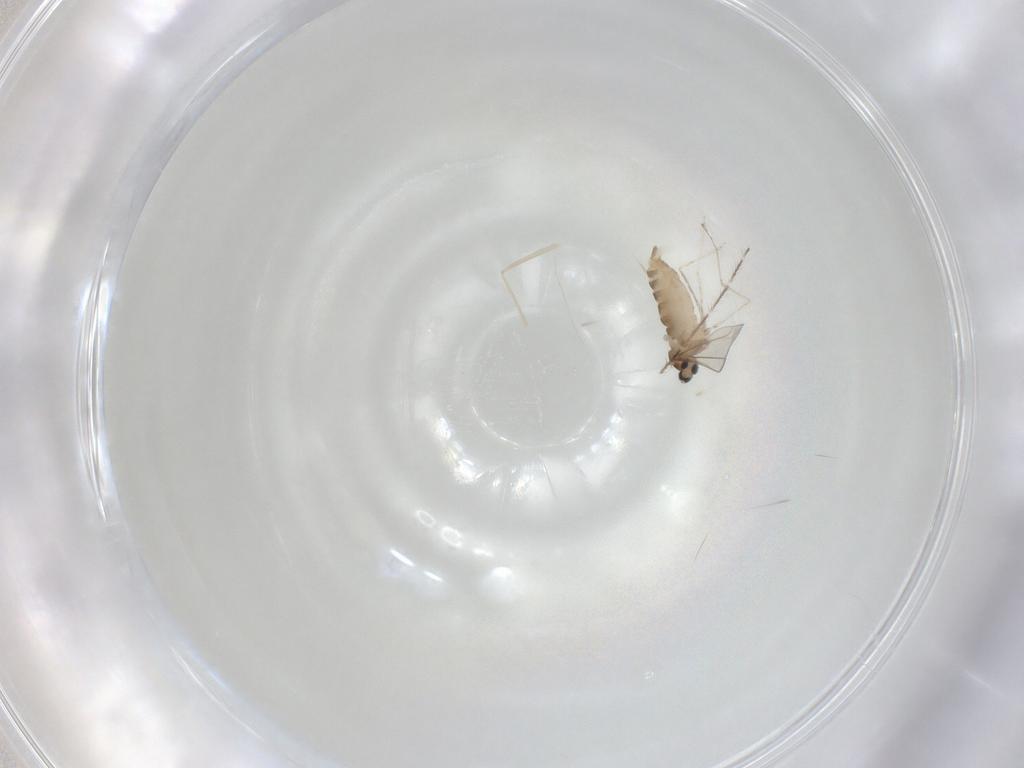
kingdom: Animalia
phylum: Arthropoda
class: Insecta
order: Diptera
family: Cecidomyiidae
